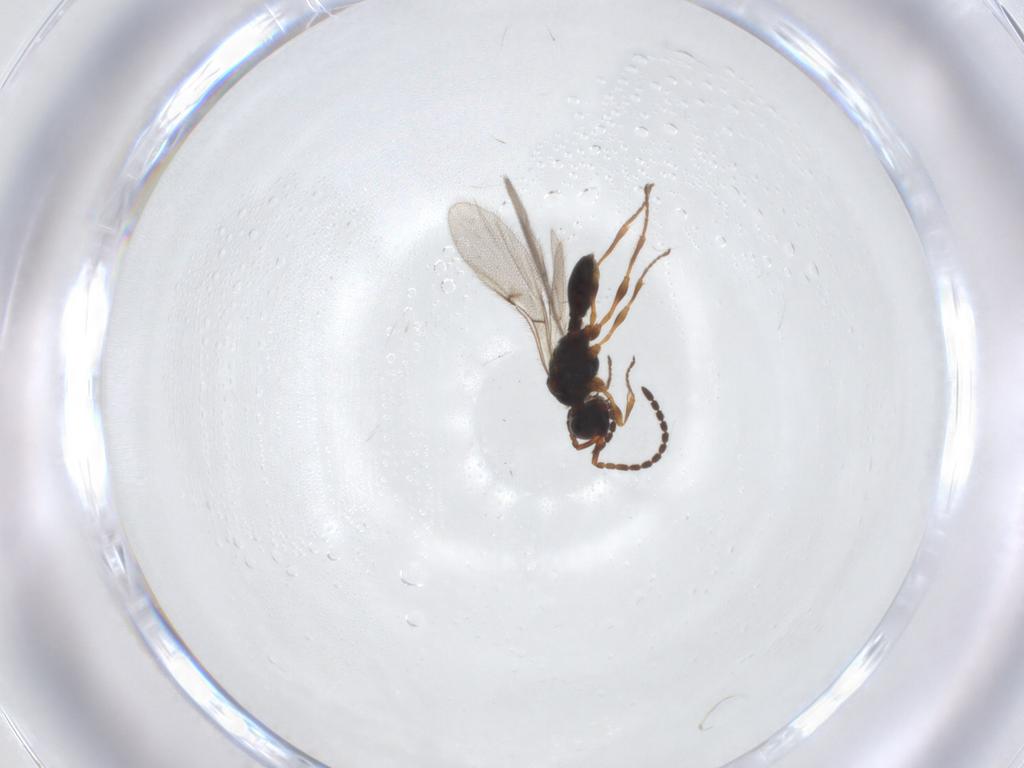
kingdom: Animalia
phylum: Arthropoda
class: Insecta
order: Hymenoptera
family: Diapriidae
